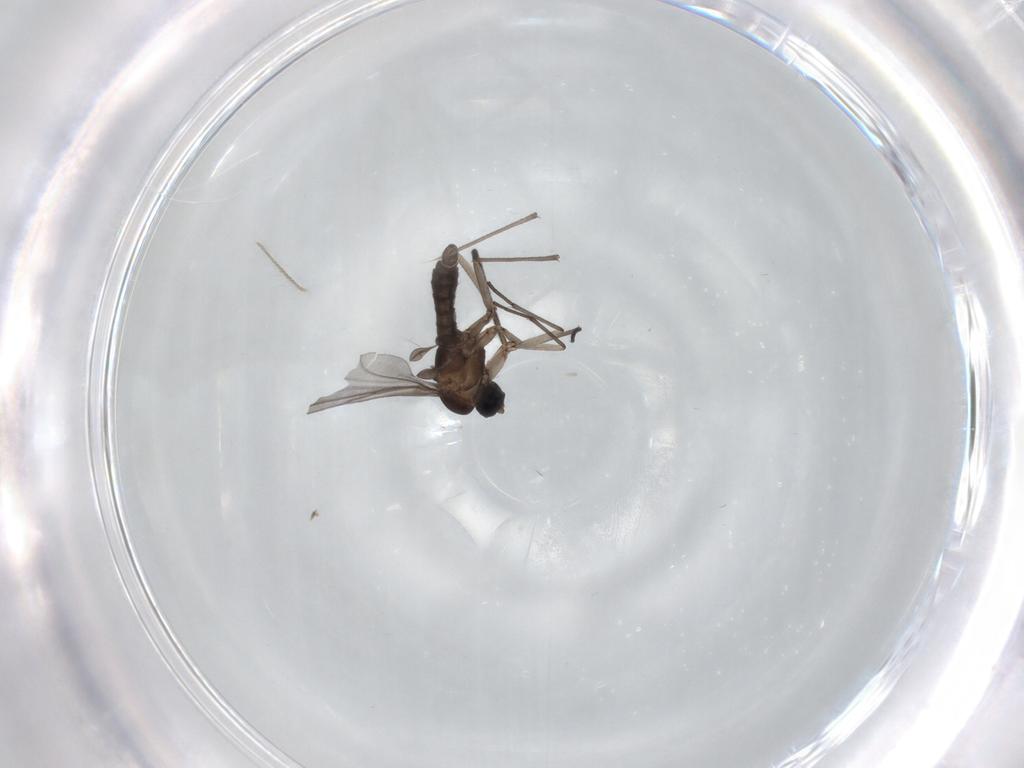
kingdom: Animalia
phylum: Arthropoda
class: Insecta
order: Diptera
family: Sciaridae
